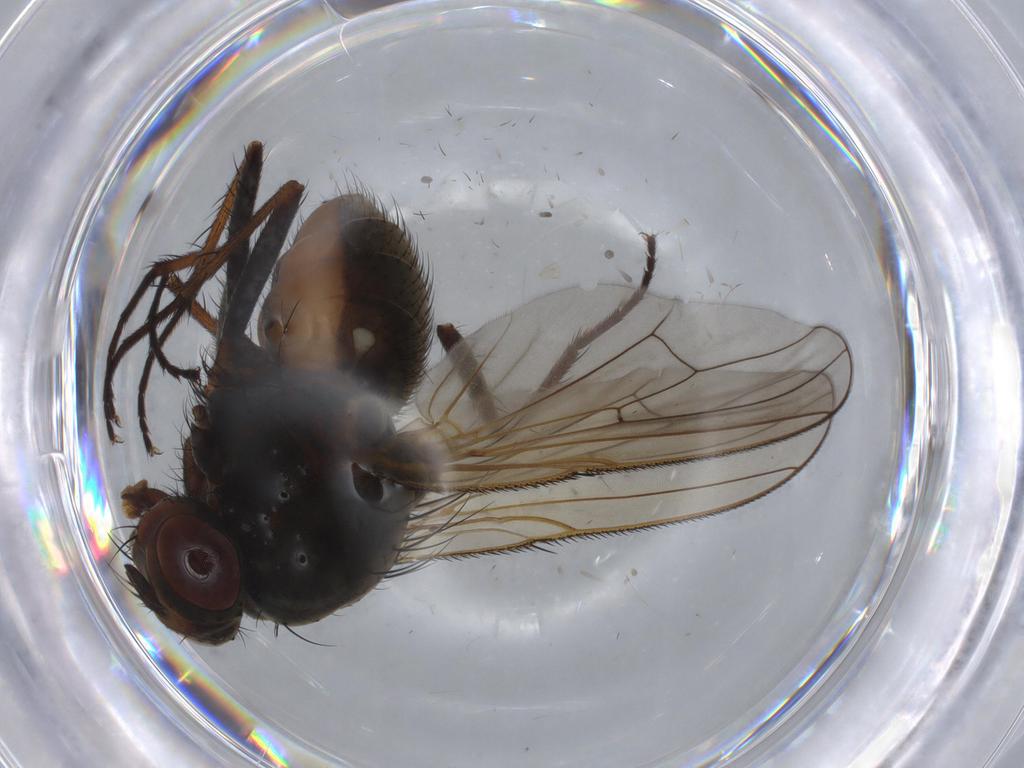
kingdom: Animalia
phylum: Arthropoda
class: Insecta
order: Diptera
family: Anthomyiidae
